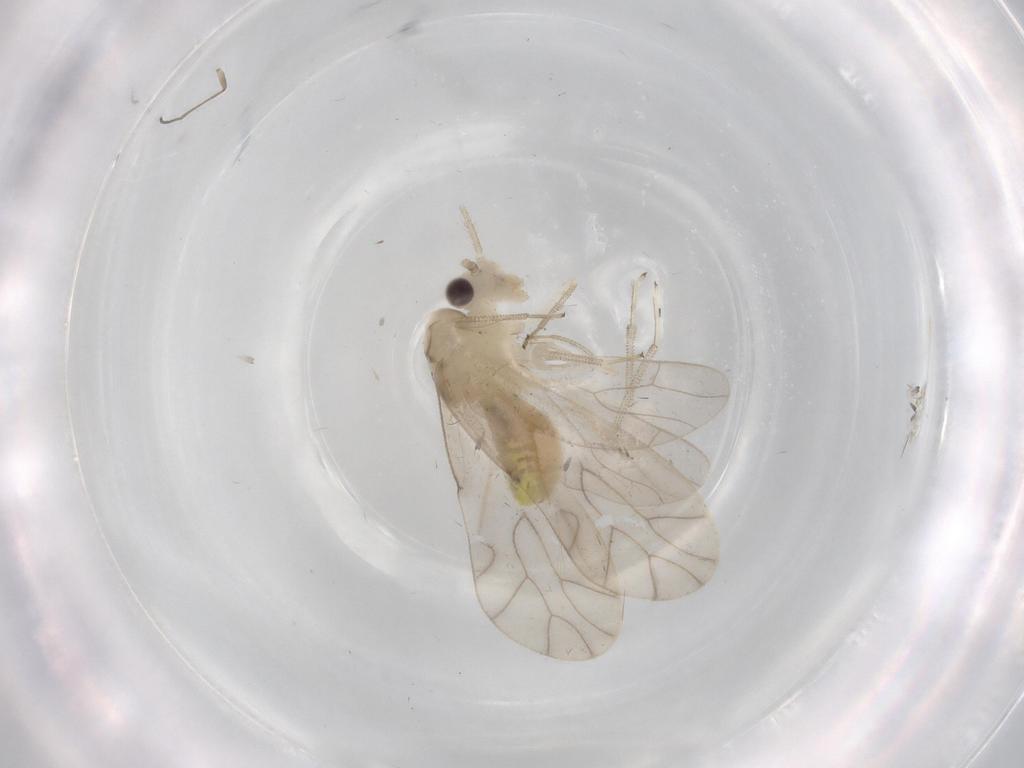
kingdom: Animalia
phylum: Arthropoda
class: Insecta
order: Psocodea
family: Caeciliusidae
